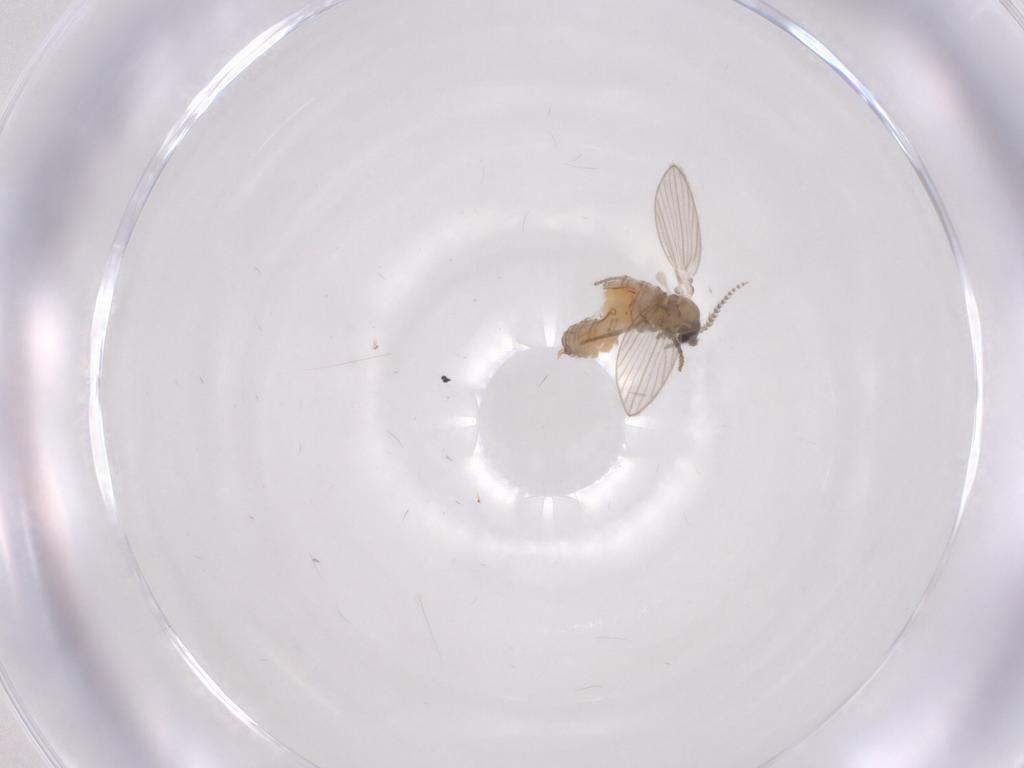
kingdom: Animalia
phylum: Arthropoda
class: Insecta
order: Diptera
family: Psychodidae
